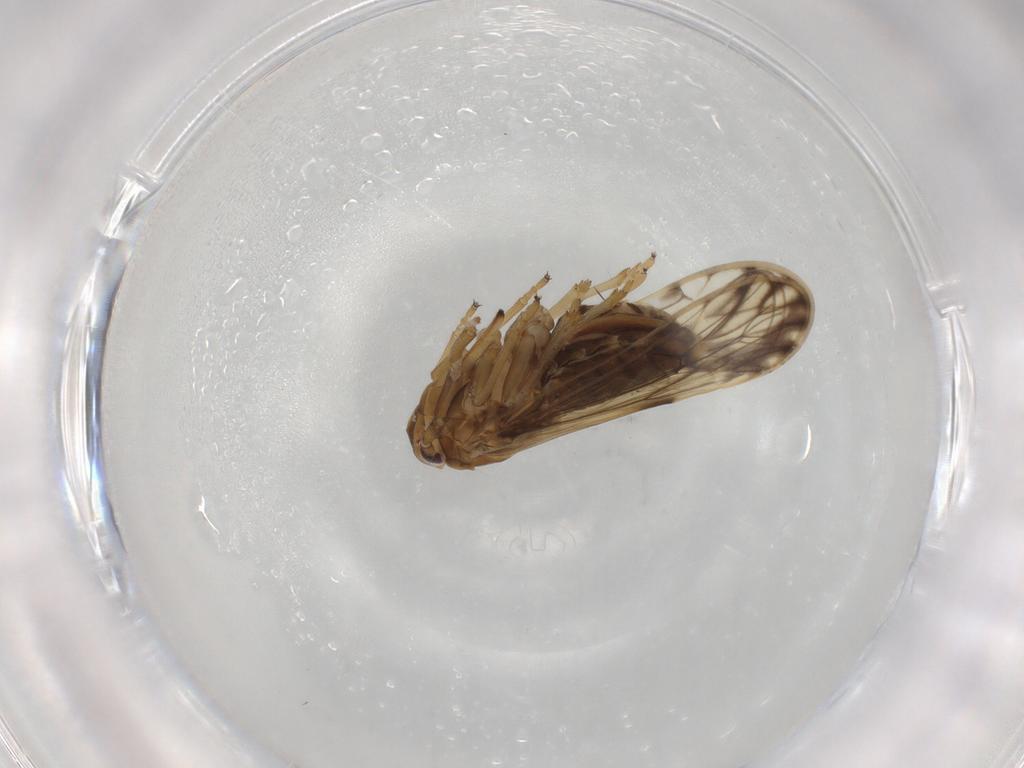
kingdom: Animalia
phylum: Arthropoda
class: Insecta
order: Hemiptera
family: Delphacidae
